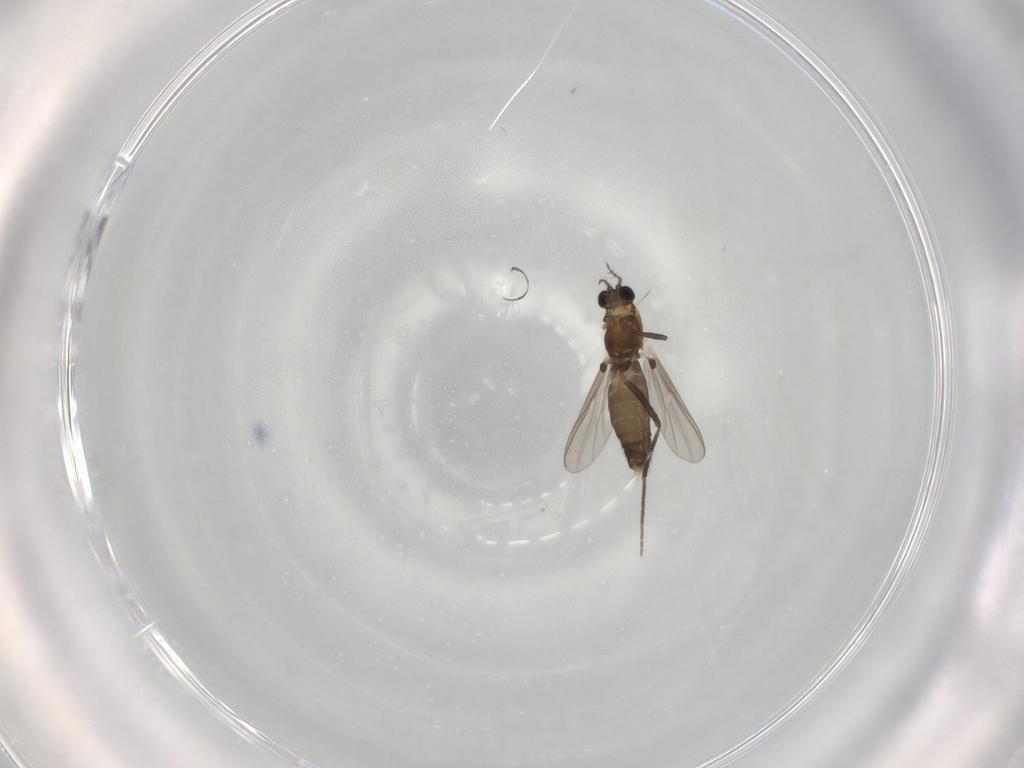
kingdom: Animalia
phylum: Arthropoda
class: Insecta
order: Diptera
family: Chironomidae
